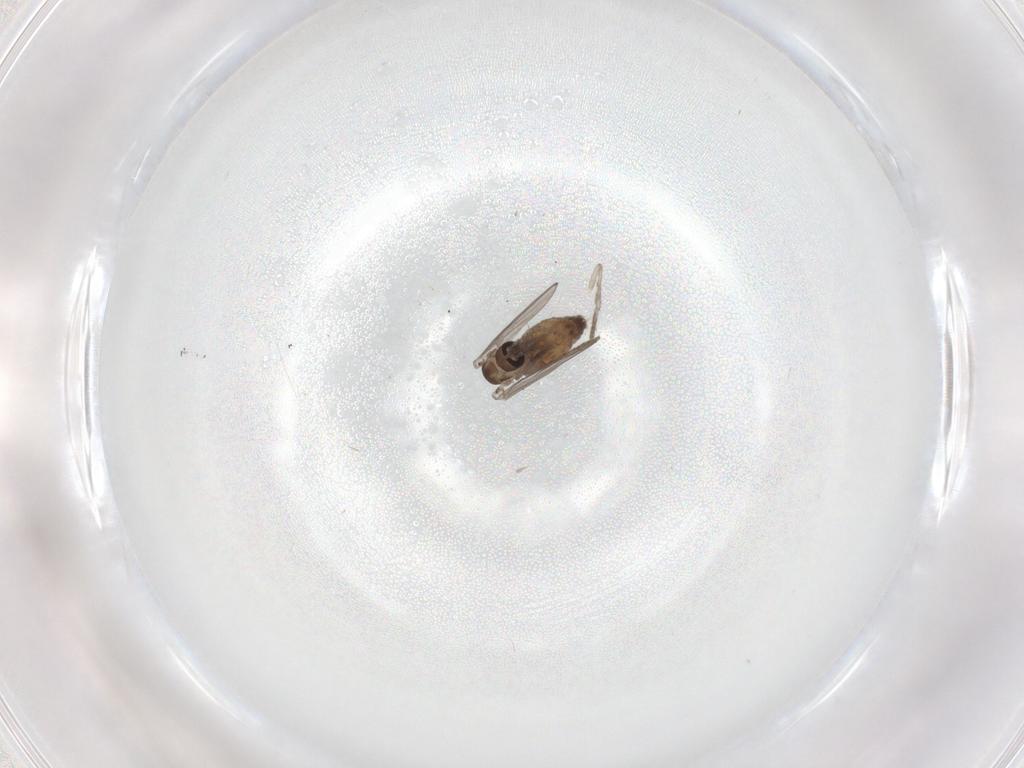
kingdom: Animalia
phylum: Arthropoda
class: Insecta
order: Diptera
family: Psychodidae
